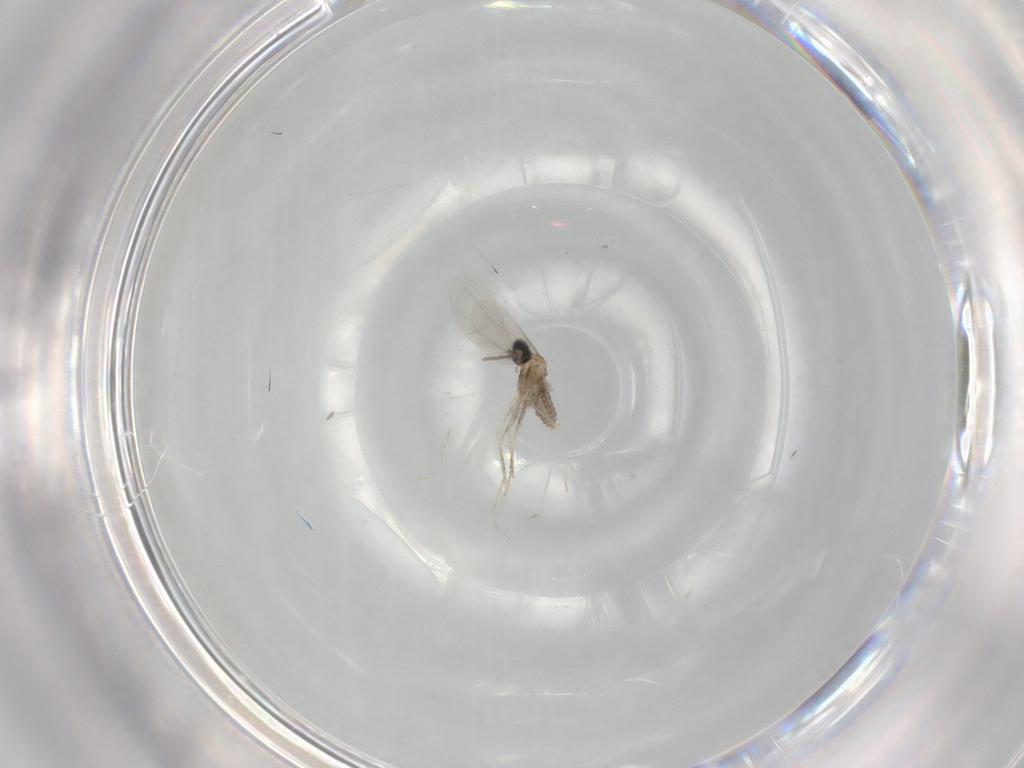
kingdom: Animalia
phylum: Arthropoda
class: Insecta
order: Diptera
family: Cecidomyiidae
